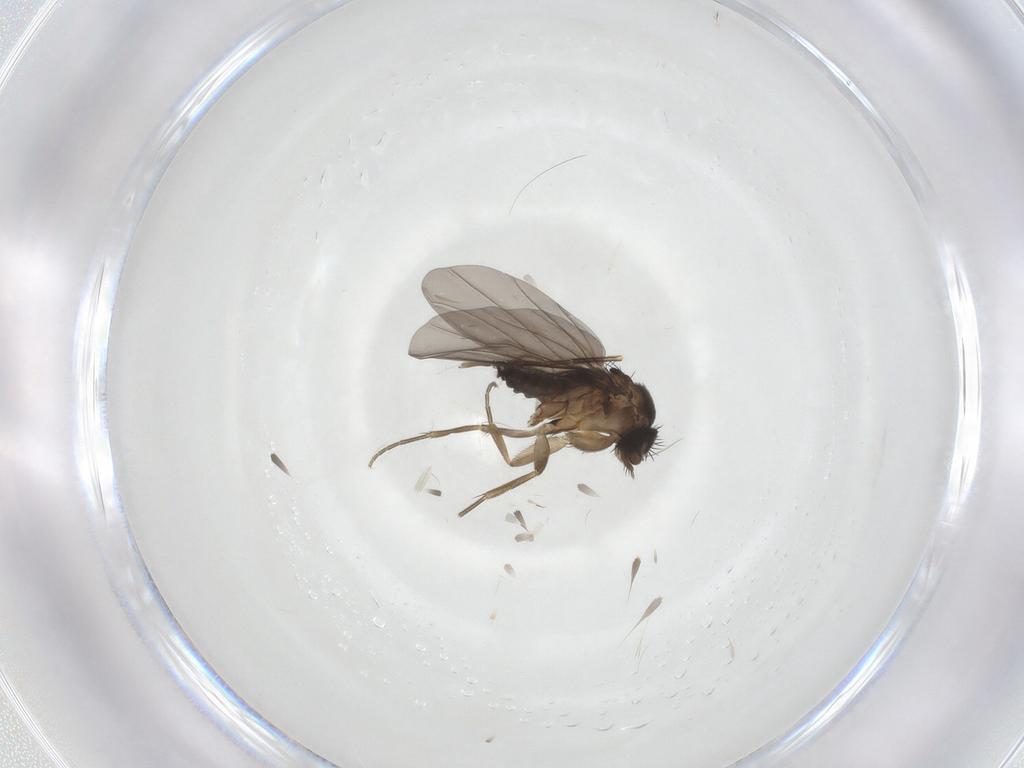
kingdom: Animalia
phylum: Arthropoda
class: Insecta
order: Diptera
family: Phoridae
